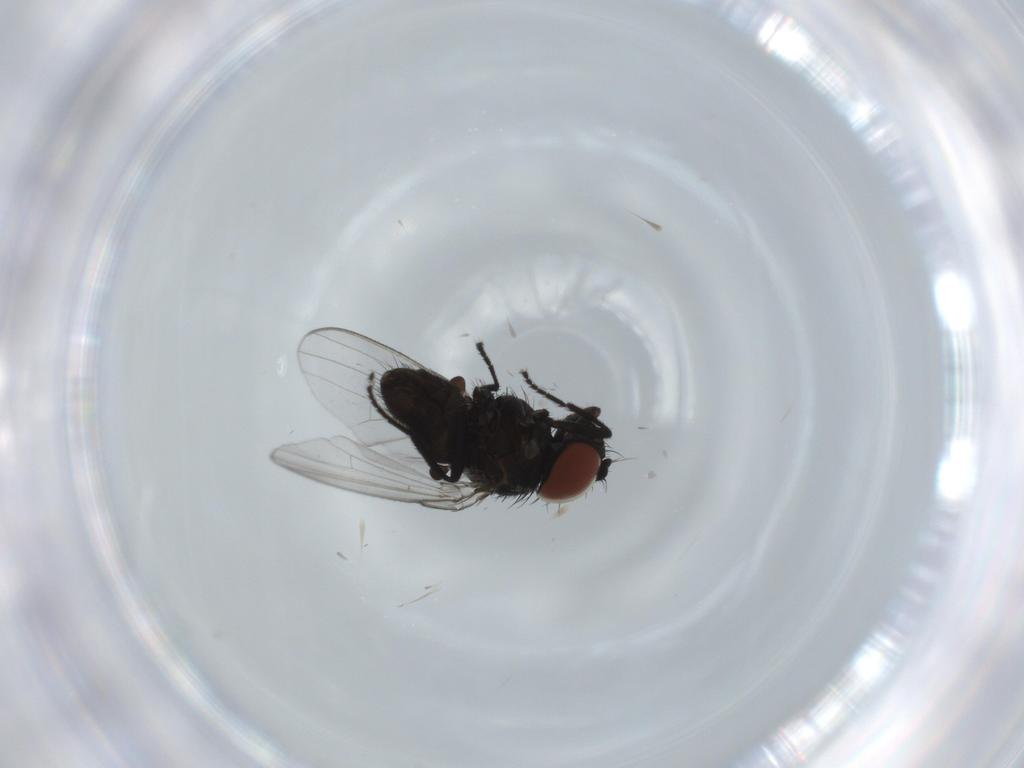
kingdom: Animalia
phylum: Arthropoda
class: Insecta
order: Diptera
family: Milichiidae
